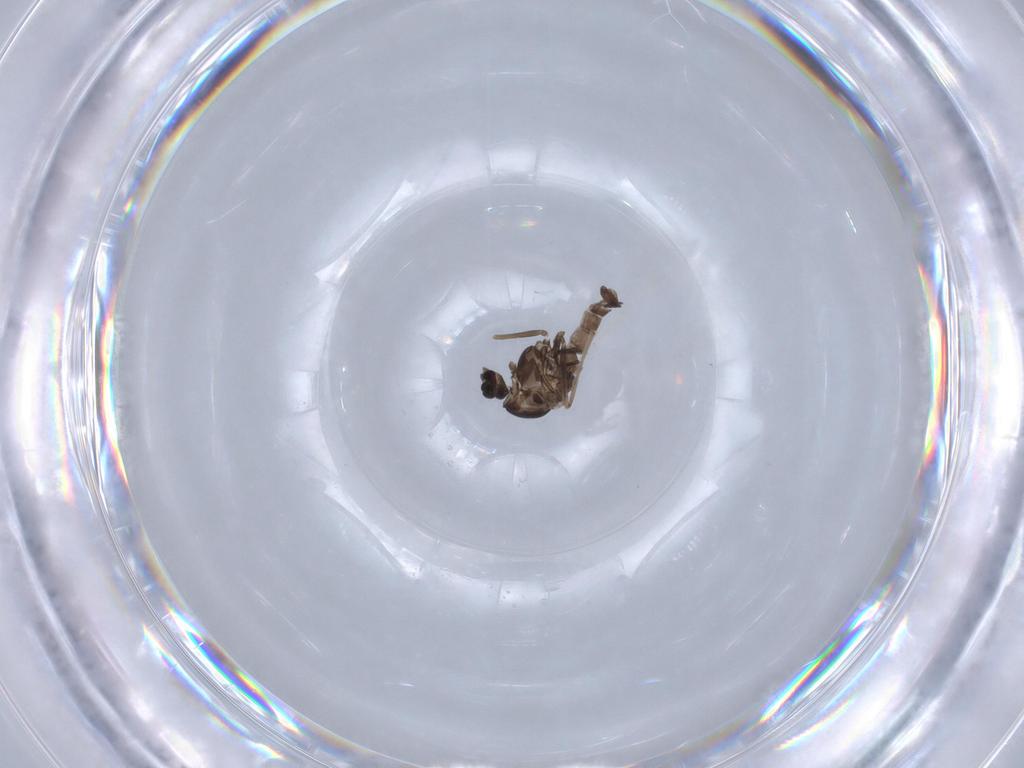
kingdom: Animalia
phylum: Arthropoda
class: Insecta
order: Diptera
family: Chironomidae
